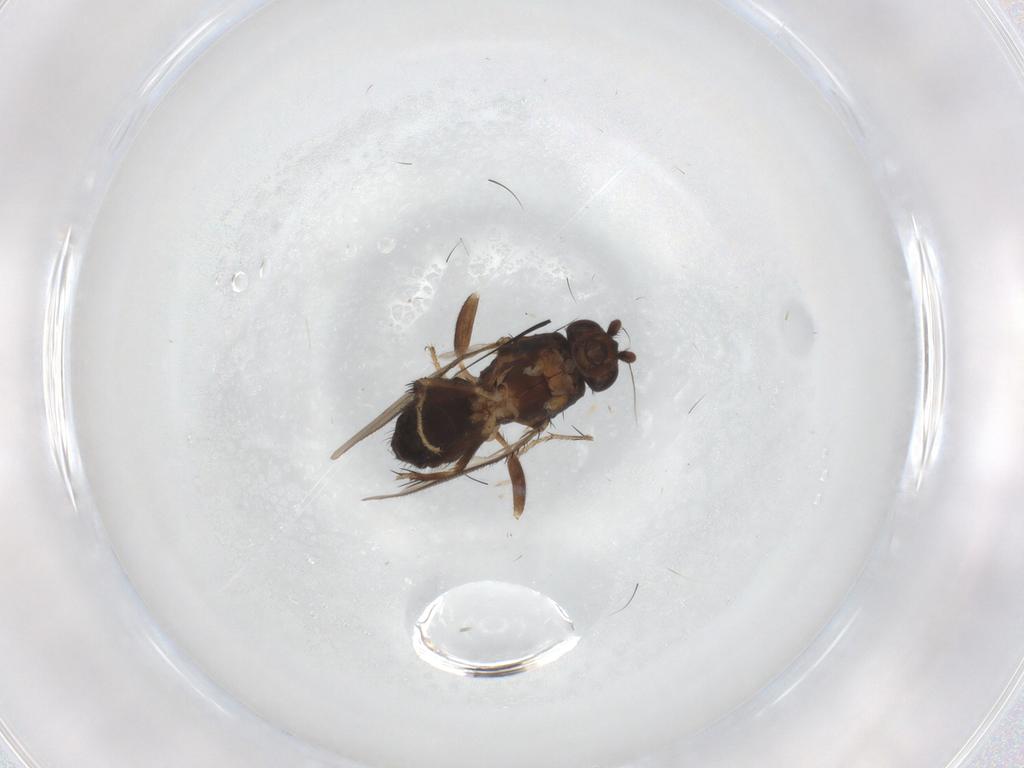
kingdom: Animalia
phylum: Arthropoda
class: Insecta
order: Diptera
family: Sphaeroceridae
